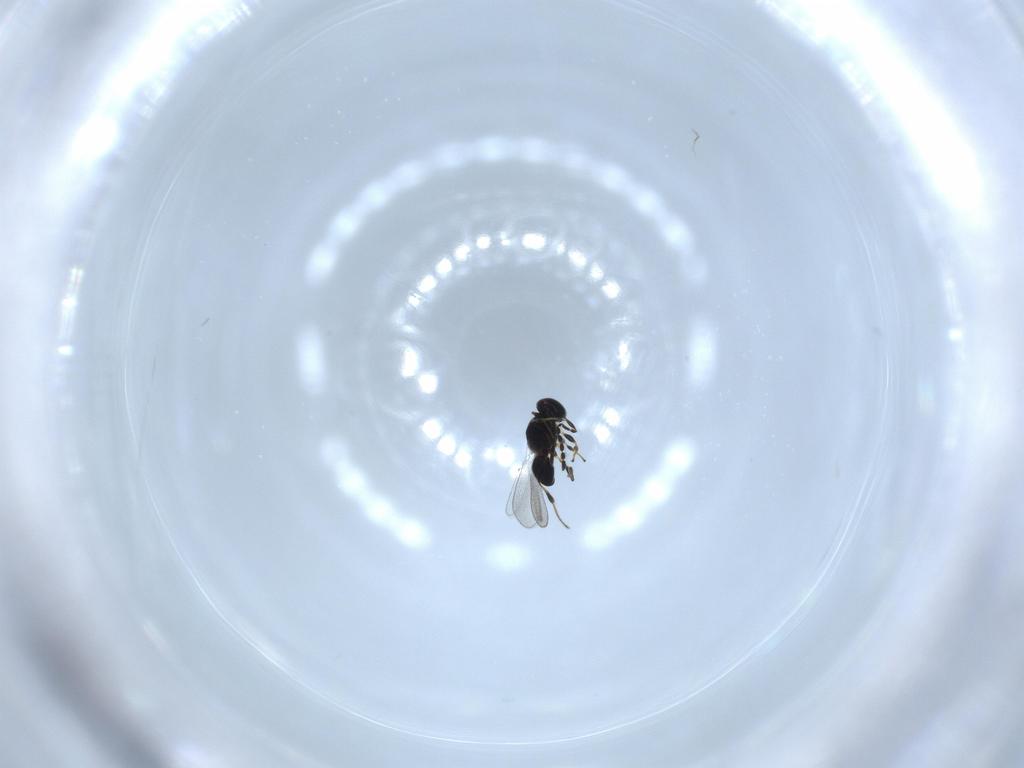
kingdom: Animalia
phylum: Arthropoda
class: Insecta
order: Hymenoptera
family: Platygastridae
